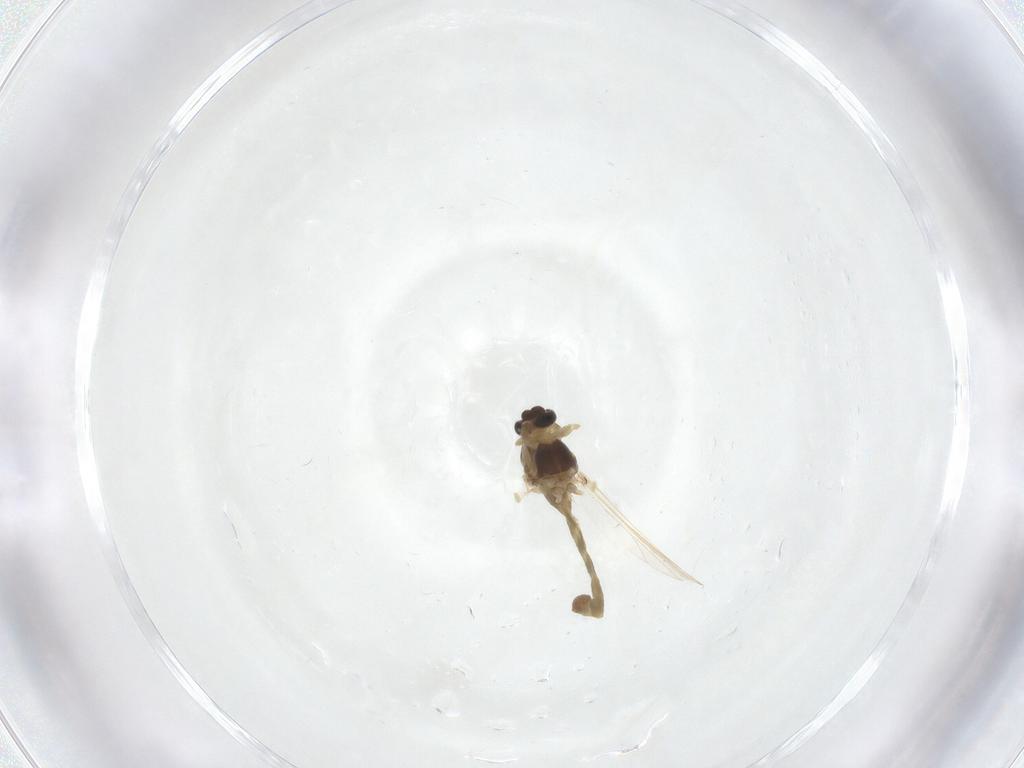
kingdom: Animalia
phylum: Arthropoda
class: Insecta
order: Diptera
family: Chironomidae
